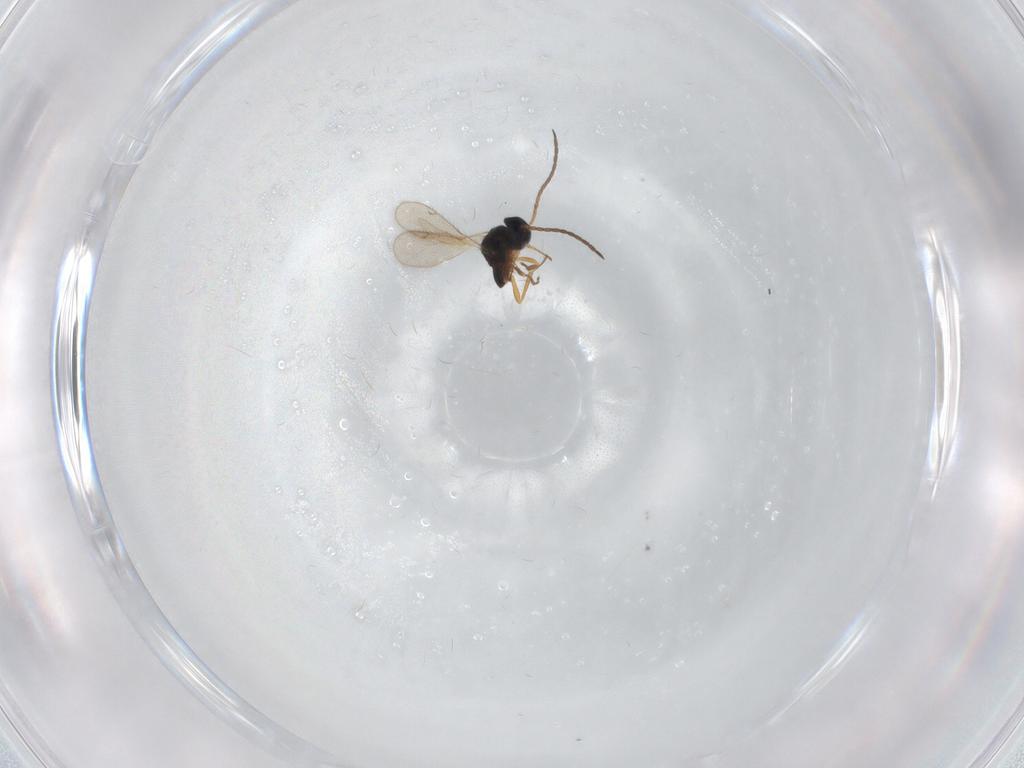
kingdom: Animalia
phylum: Arthropoda
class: Insecta
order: Hymenoptera
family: Diparidae
